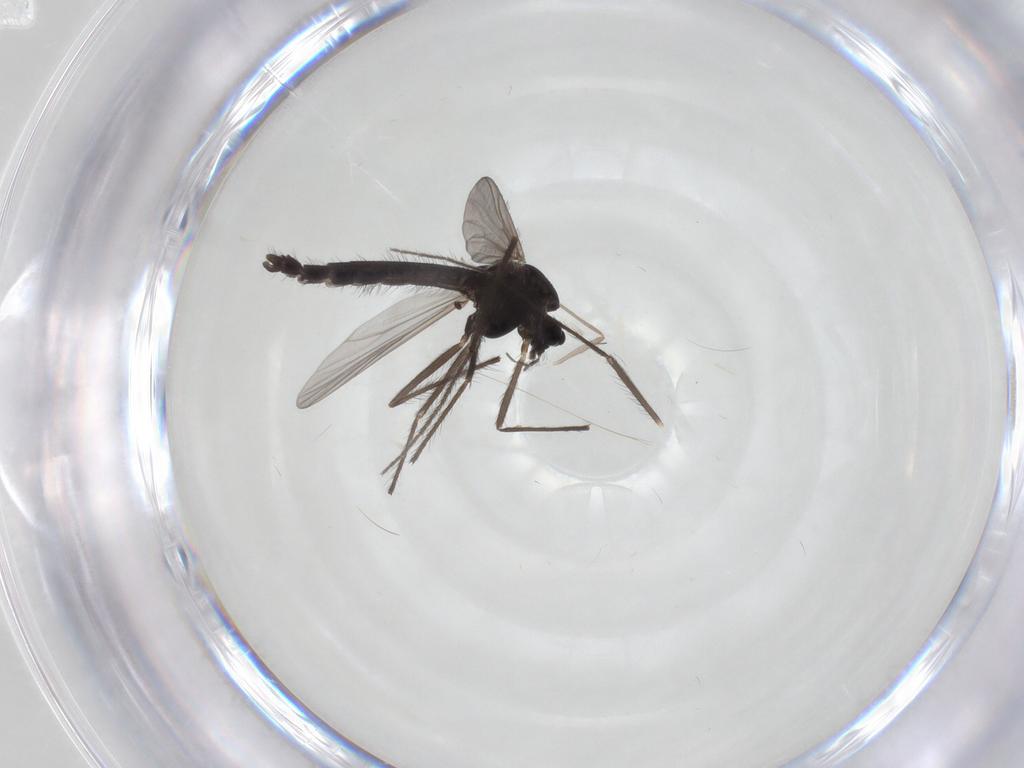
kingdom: Animalia
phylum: Arthropoda
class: Insecta
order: Diptera
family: Chironomidae
